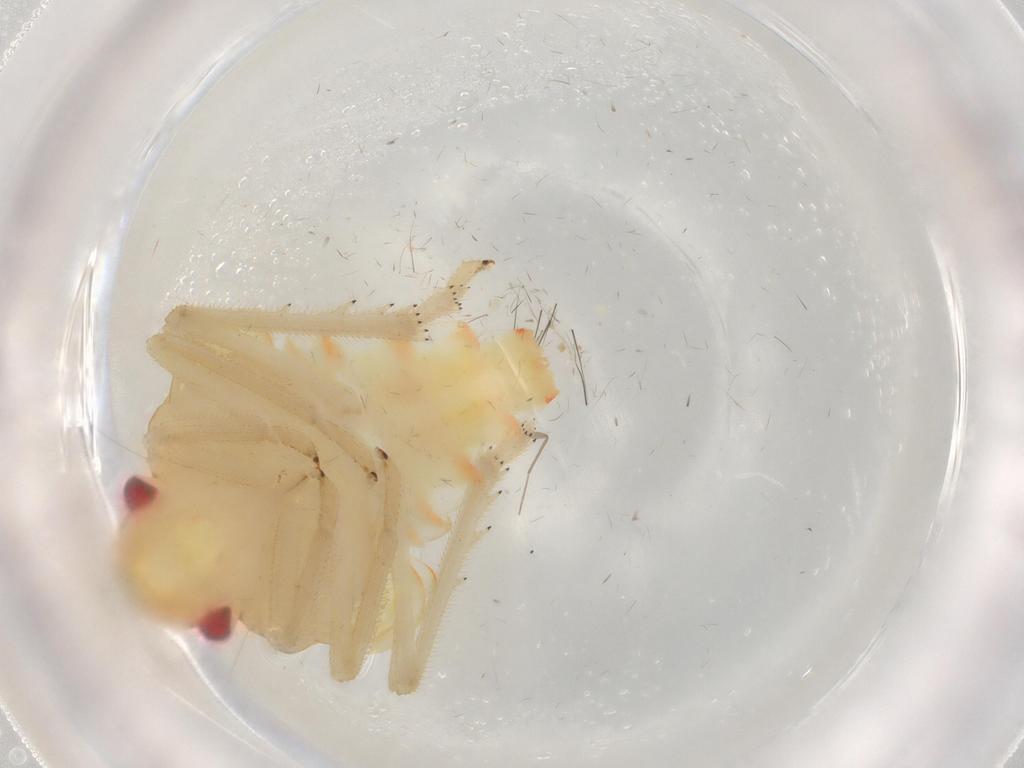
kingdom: Animalia
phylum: Arthropoda
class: Insecta
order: Hemiptera
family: Tropiduchidae
